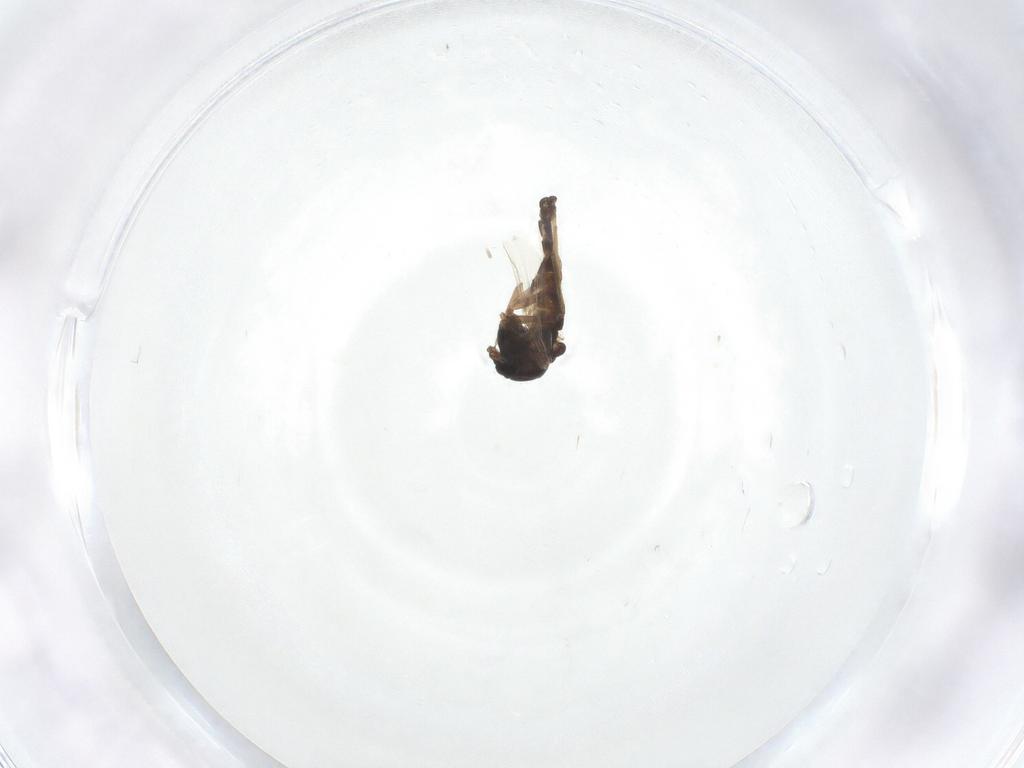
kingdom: Animalia
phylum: Arthropoda
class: Insecta
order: Diptera
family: Chironomidae
